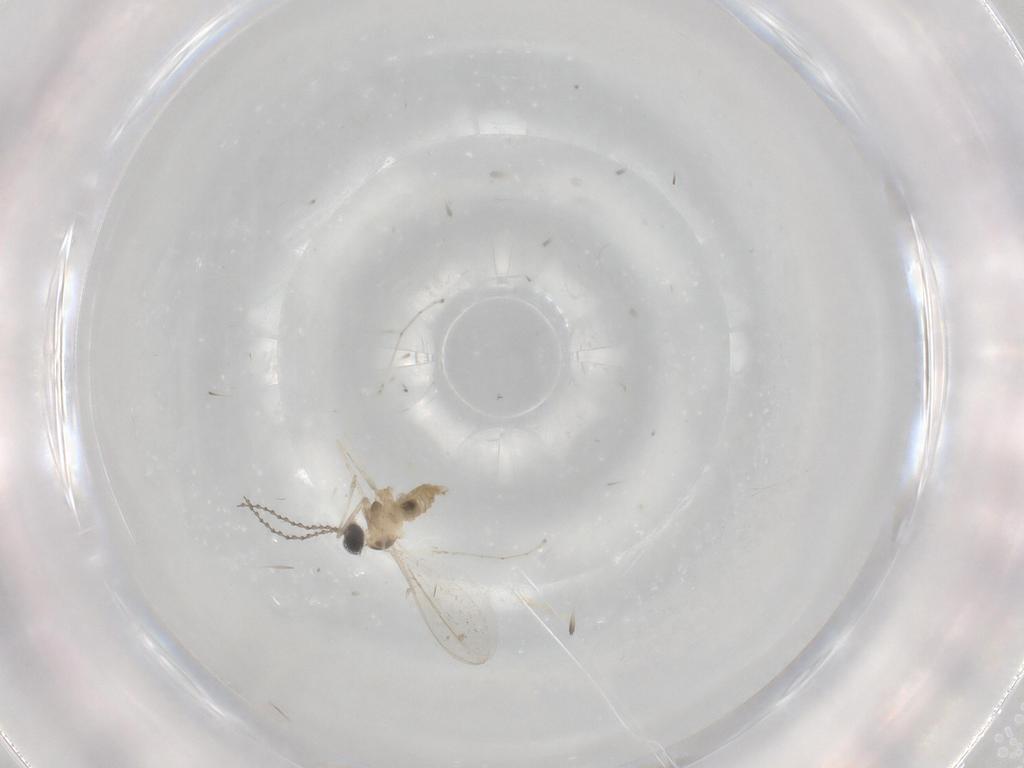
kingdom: Animalia
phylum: Arthropoda
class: Insecta
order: Diptera
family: Cecidomyiidae
